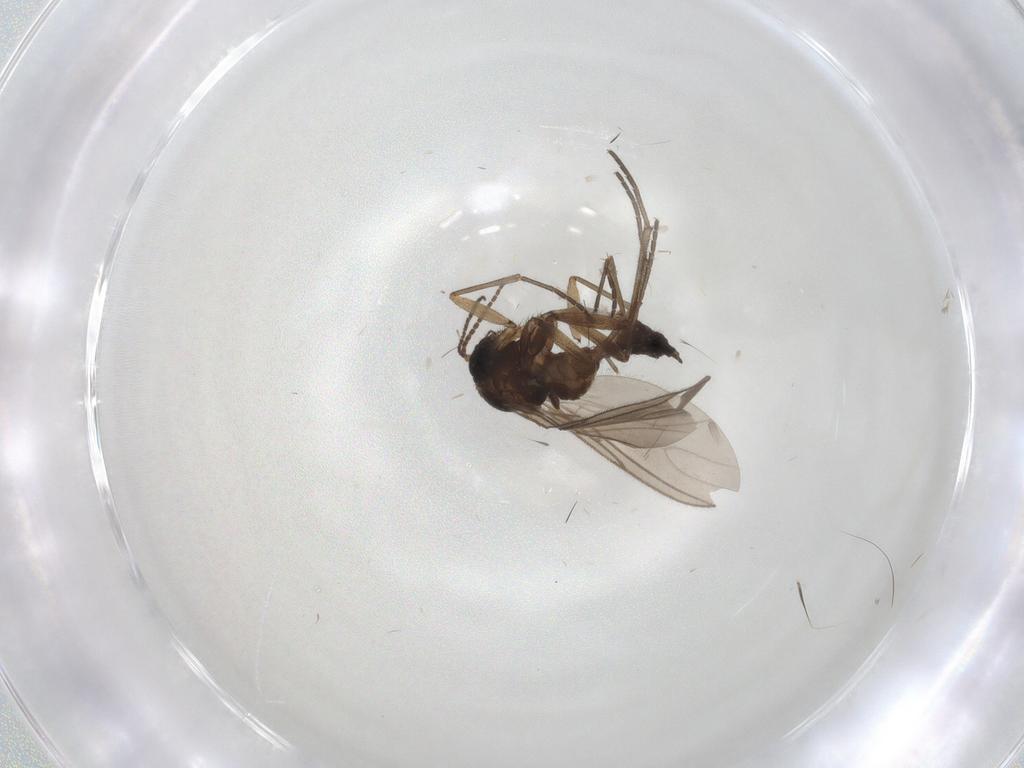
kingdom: Animalia
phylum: Arthropoda
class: Insecta
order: Diptera
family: Sciaridae
